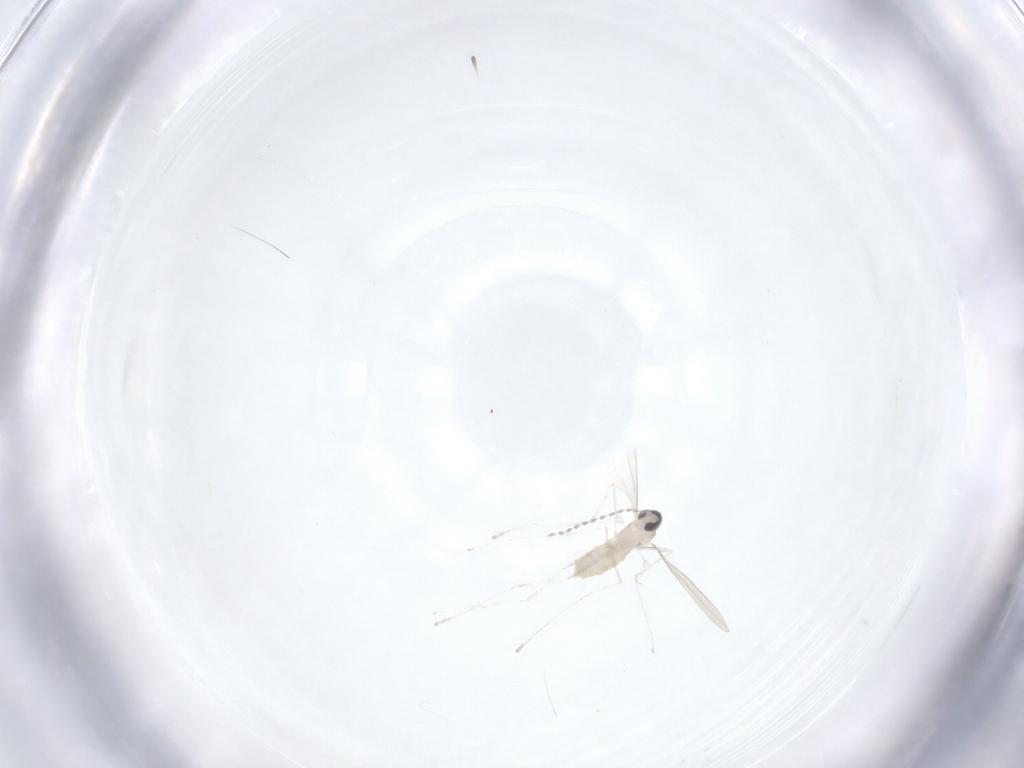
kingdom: Animalia
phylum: Arthropoda
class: Insecta
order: Diptera
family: Cecidomyiidae
